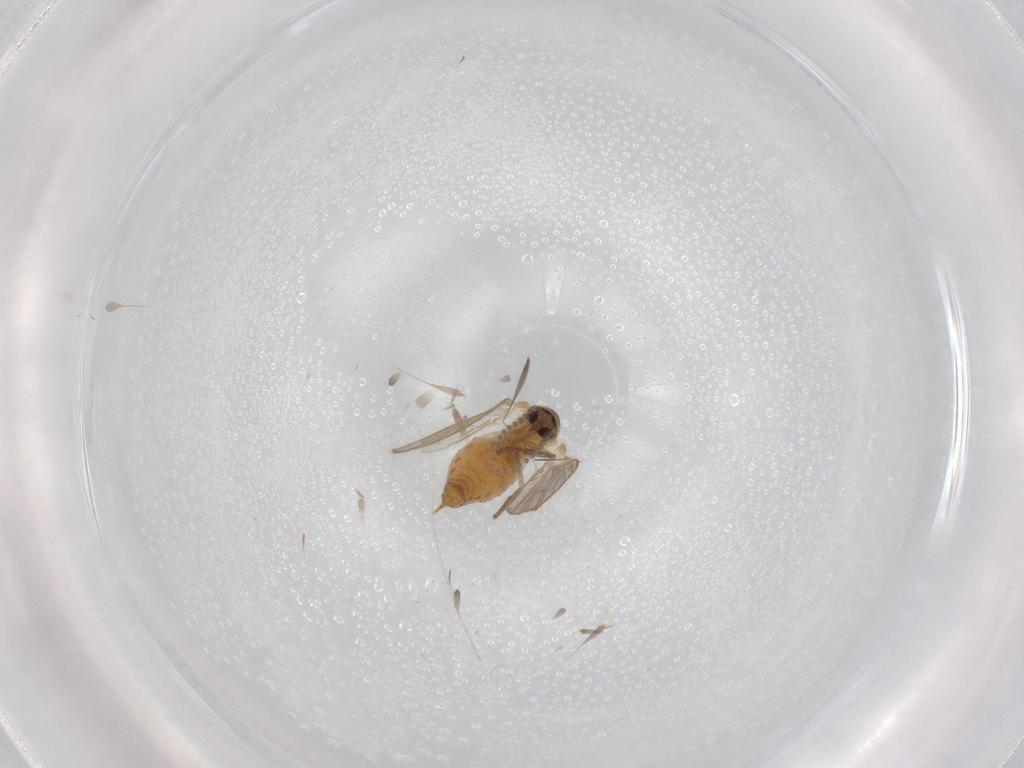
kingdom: Animalia
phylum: Arthropoda
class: Insecta
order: Diptera
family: Psychodidae
